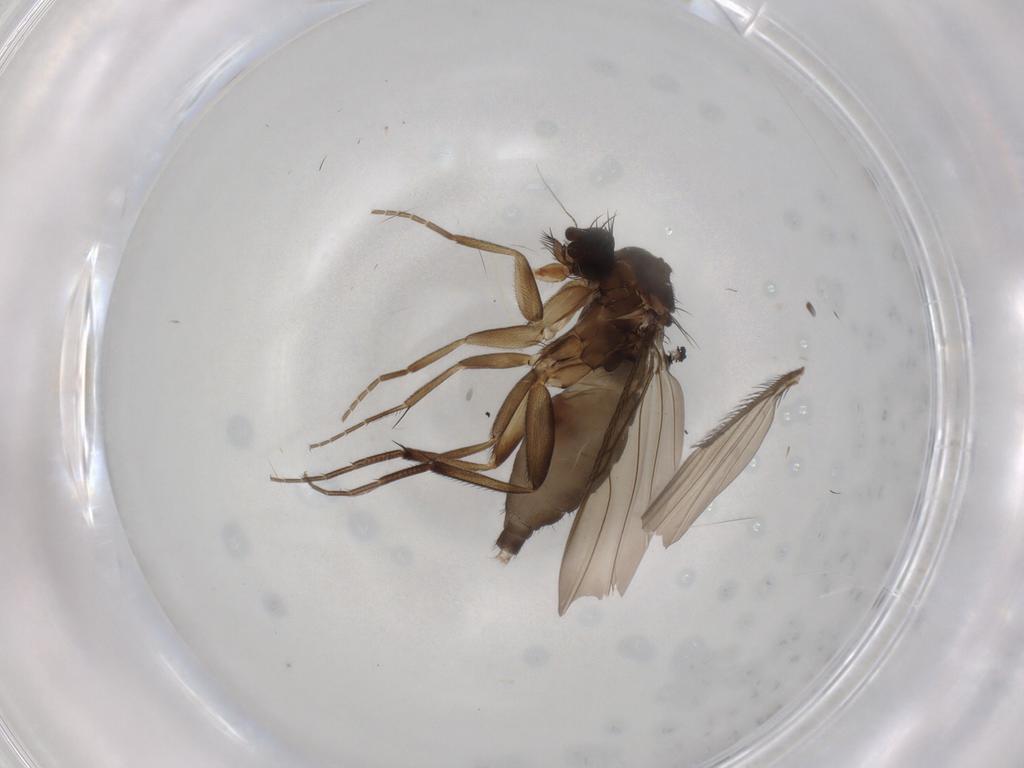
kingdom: Animalia
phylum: Arthropoda
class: Insecta
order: Diptera
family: Phoridae
